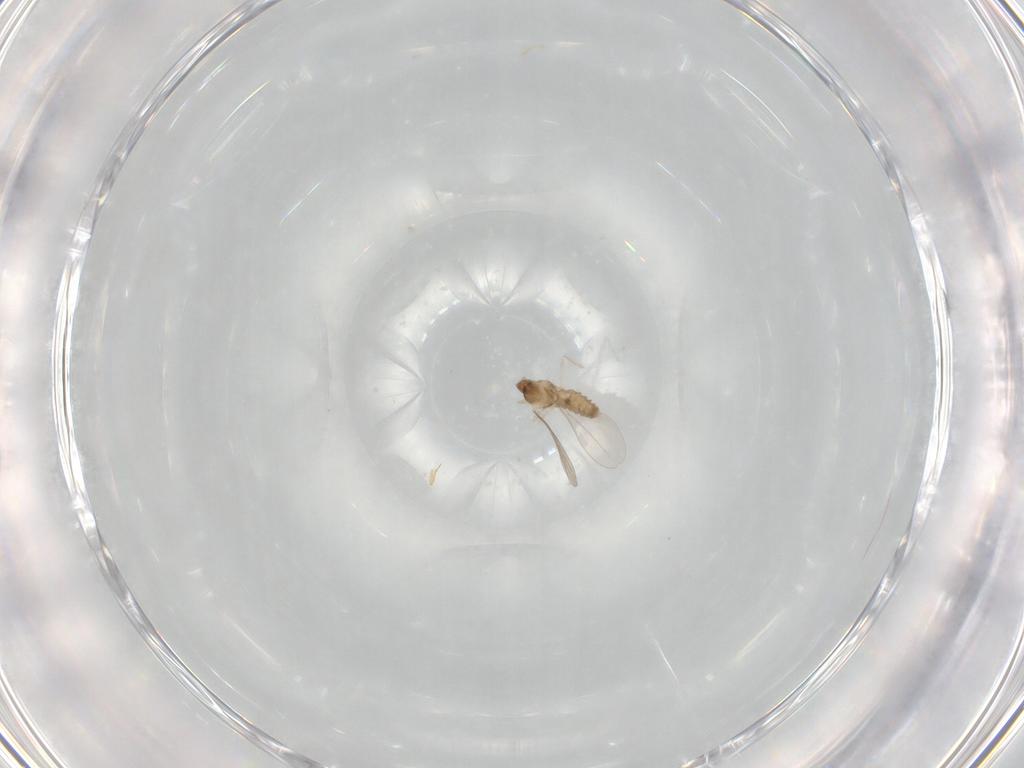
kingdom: Animalia
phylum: Arthropoda
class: Insecta
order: Diptera
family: Cecidomyiidae
